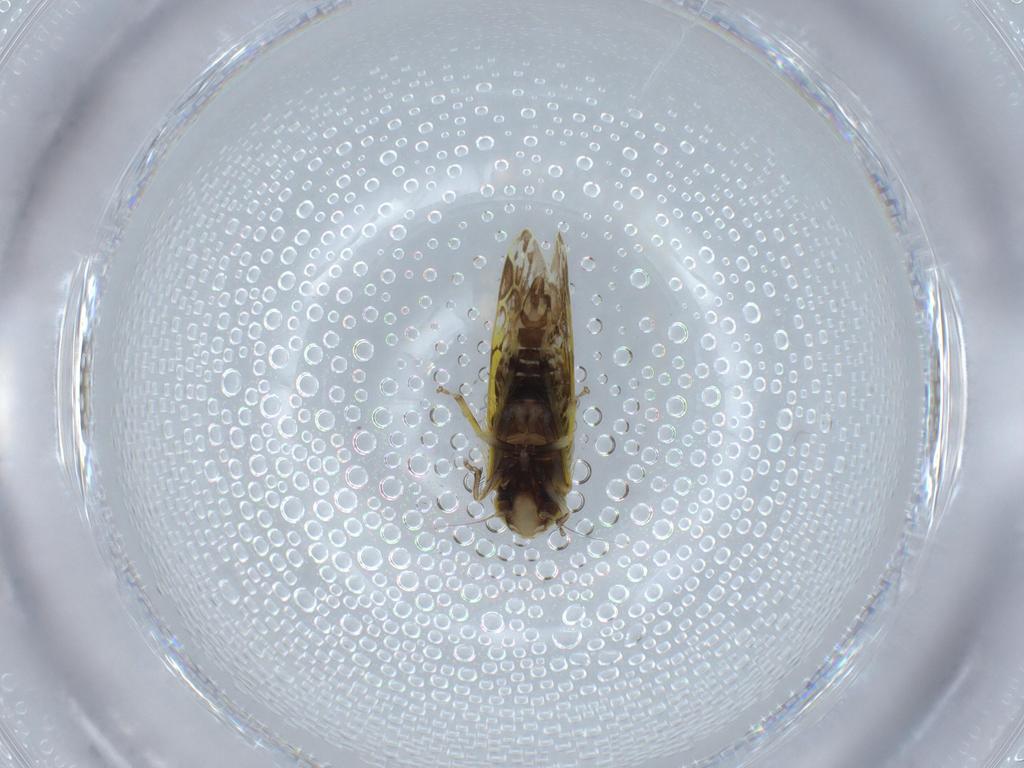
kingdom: Animalia
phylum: Arthropoda
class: Insecta
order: Hemiptera
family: Cicadellidae
